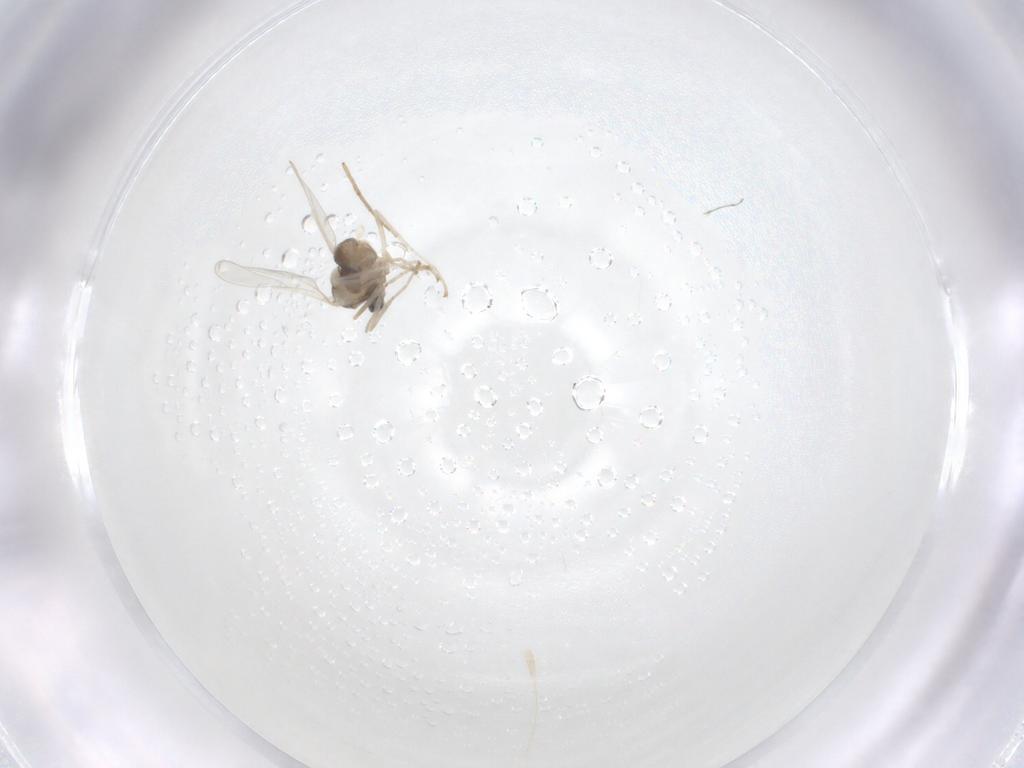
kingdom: Animalia
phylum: Arthropoda
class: Insecta
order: Diptera
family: Cecidomyiidae
